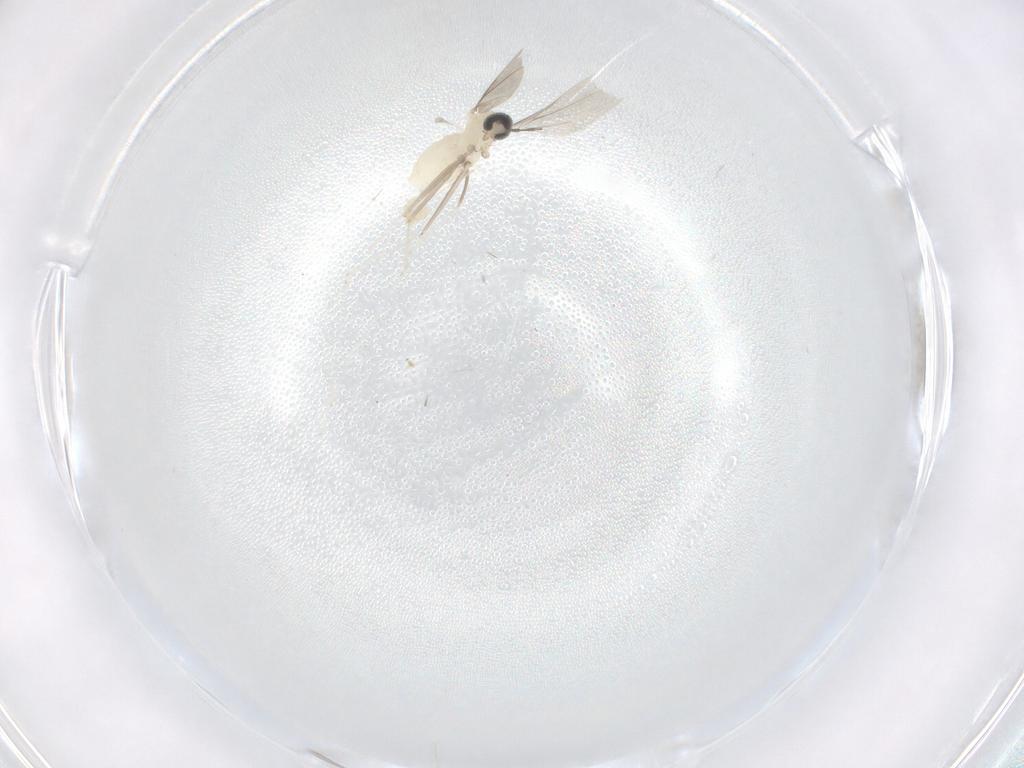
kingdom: Animalia
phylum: Arthropoda
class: Insecta
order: Diptera
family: Cecidomyiidae
